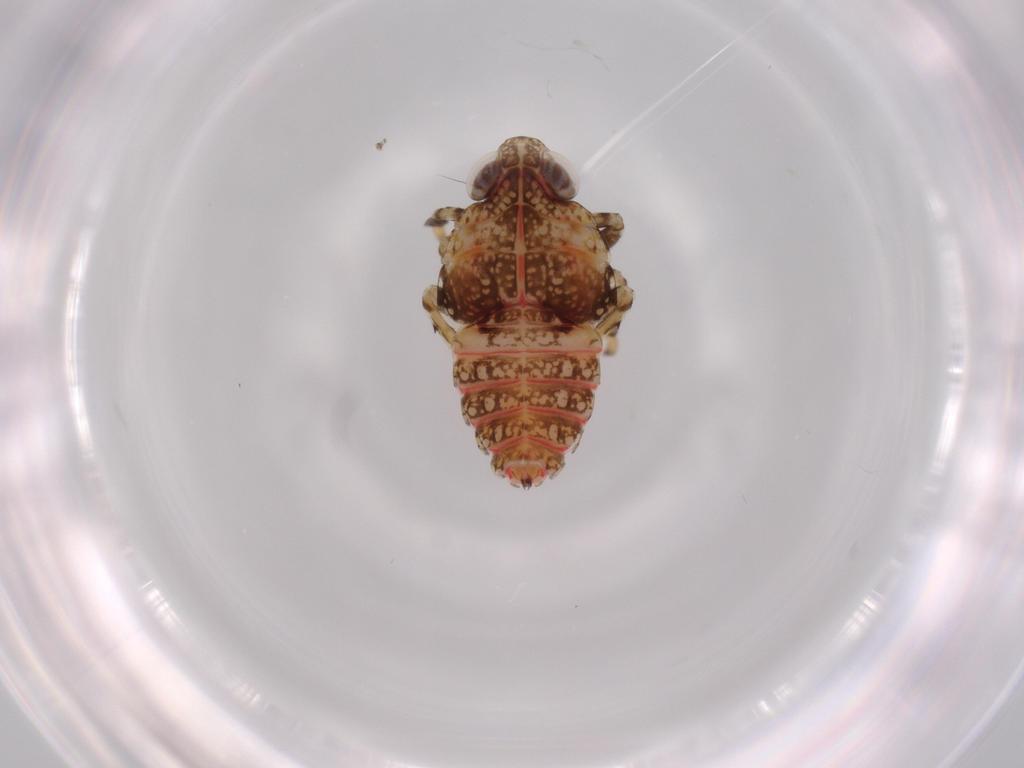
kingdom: Animalia
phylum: Arthropoda
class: Insecta
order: Hemiptera
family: Issidae
